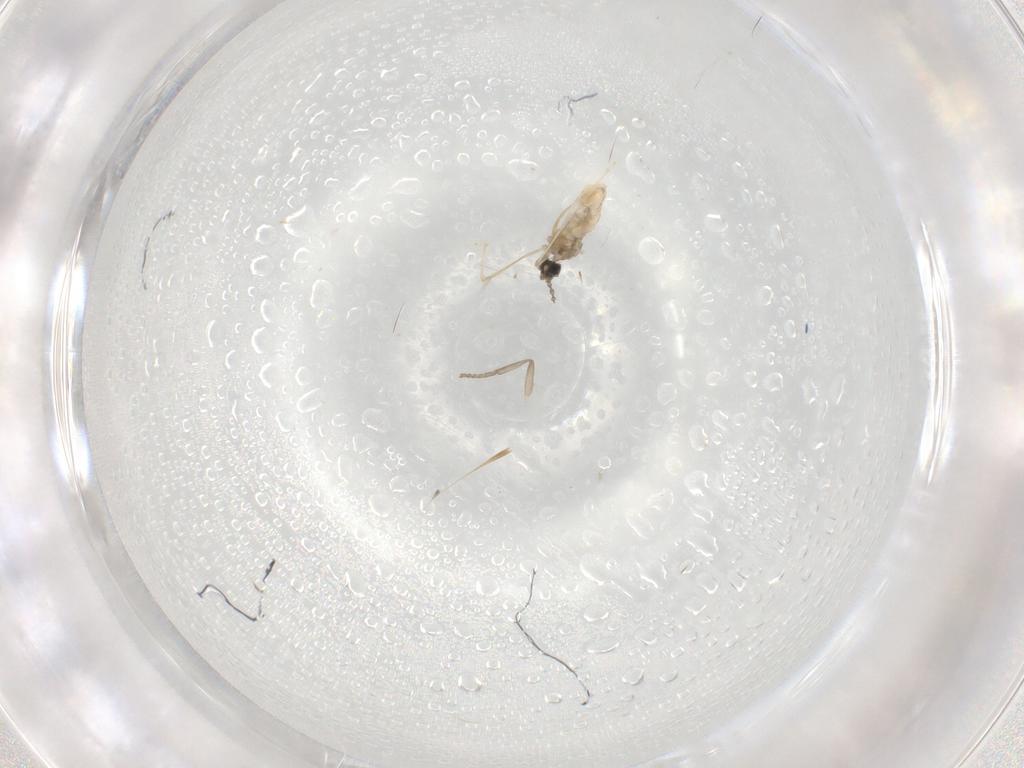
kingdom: Animalia
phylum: Arthropoda
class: Insecta
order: Diptera
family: Cecidomyiidae
